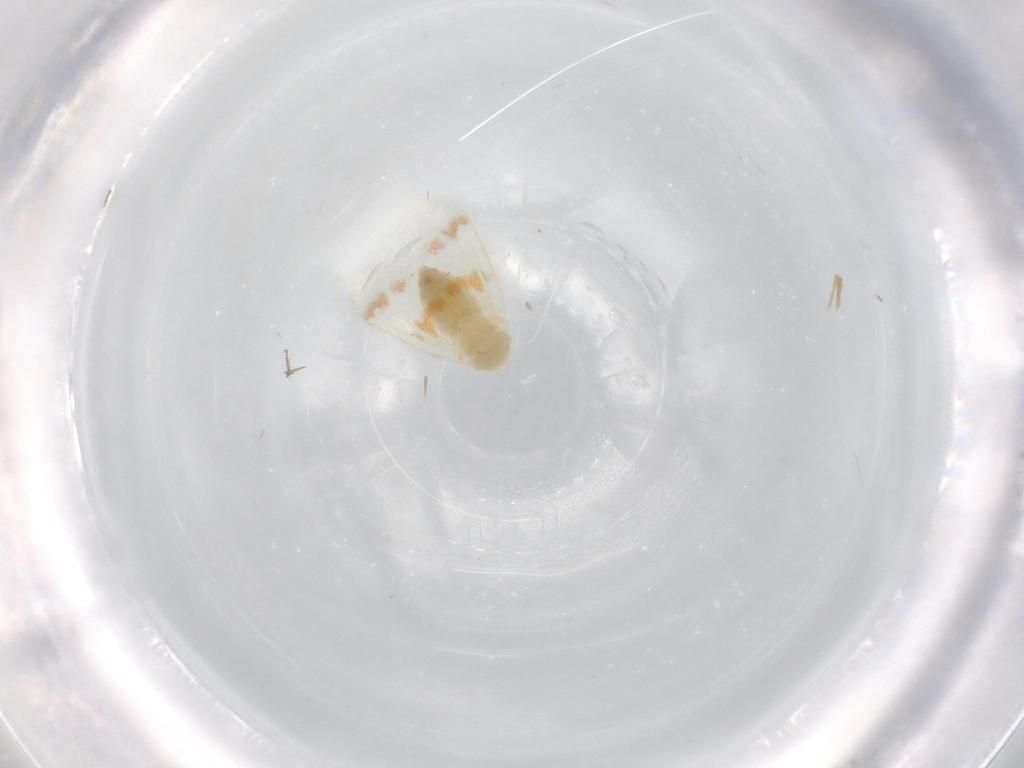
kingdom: Animalia
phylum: Arthropoda
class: Insecta
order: Hemiptera
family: Aleyrodidae
